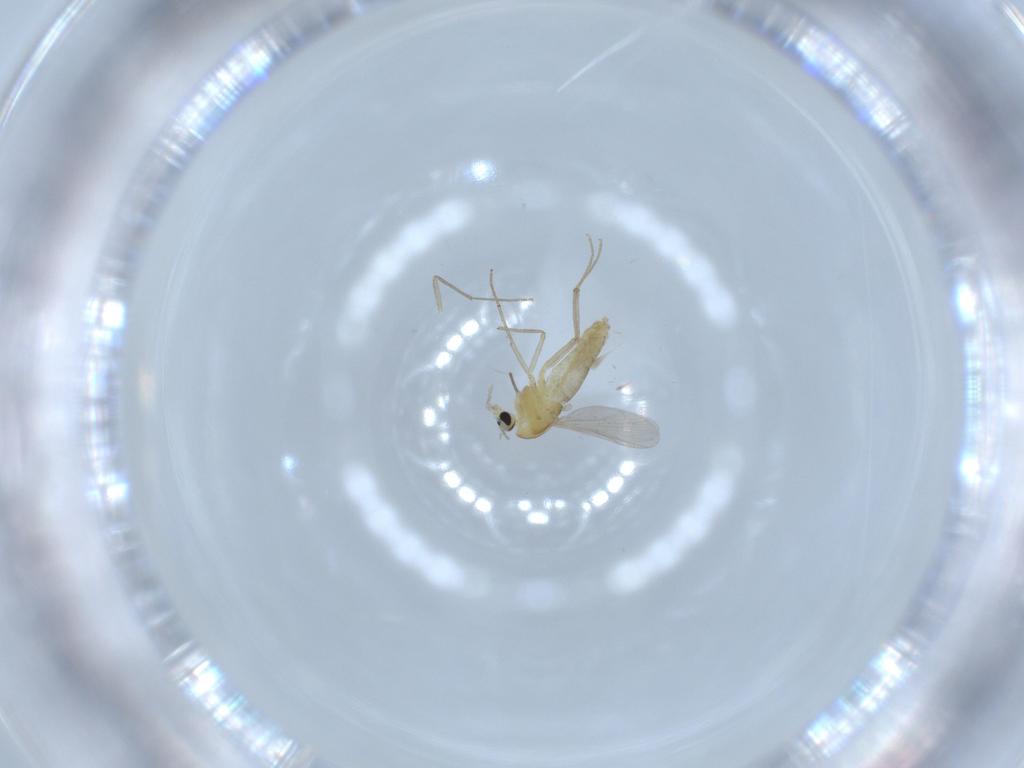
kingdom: Animalia
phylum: Arthropoda
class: Insecta
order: Diptera
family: Chironomidae
